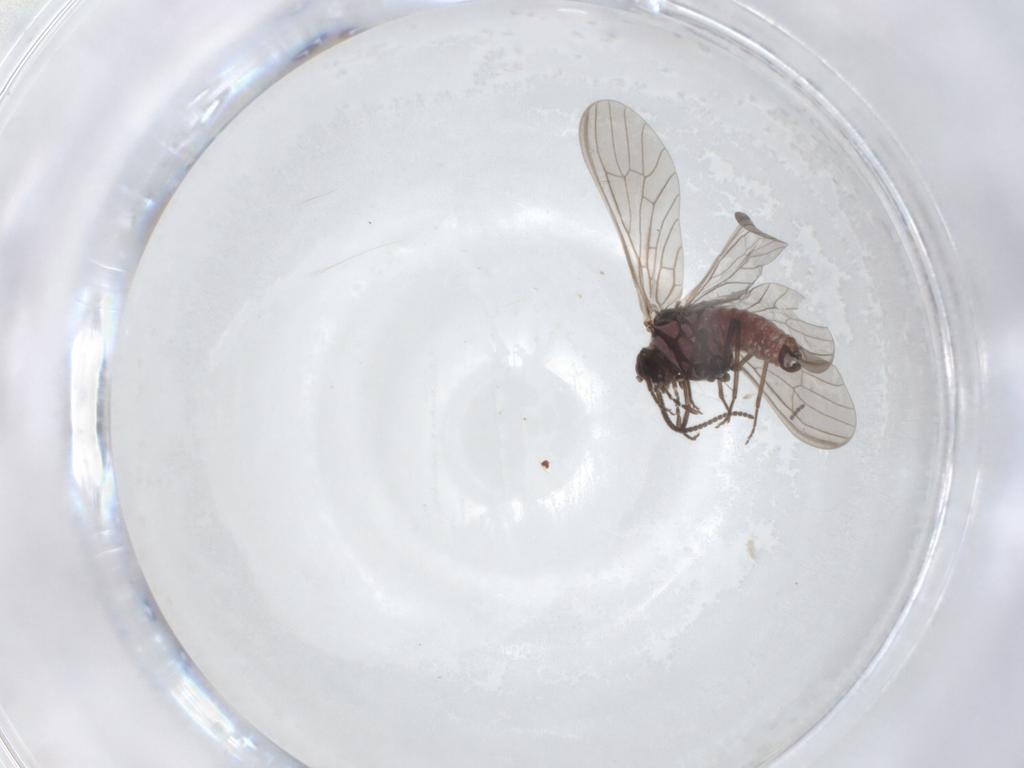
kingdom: Animalia
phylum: Arthropoda
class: Insecta
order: Neuroptera
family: Coniopterygidae
